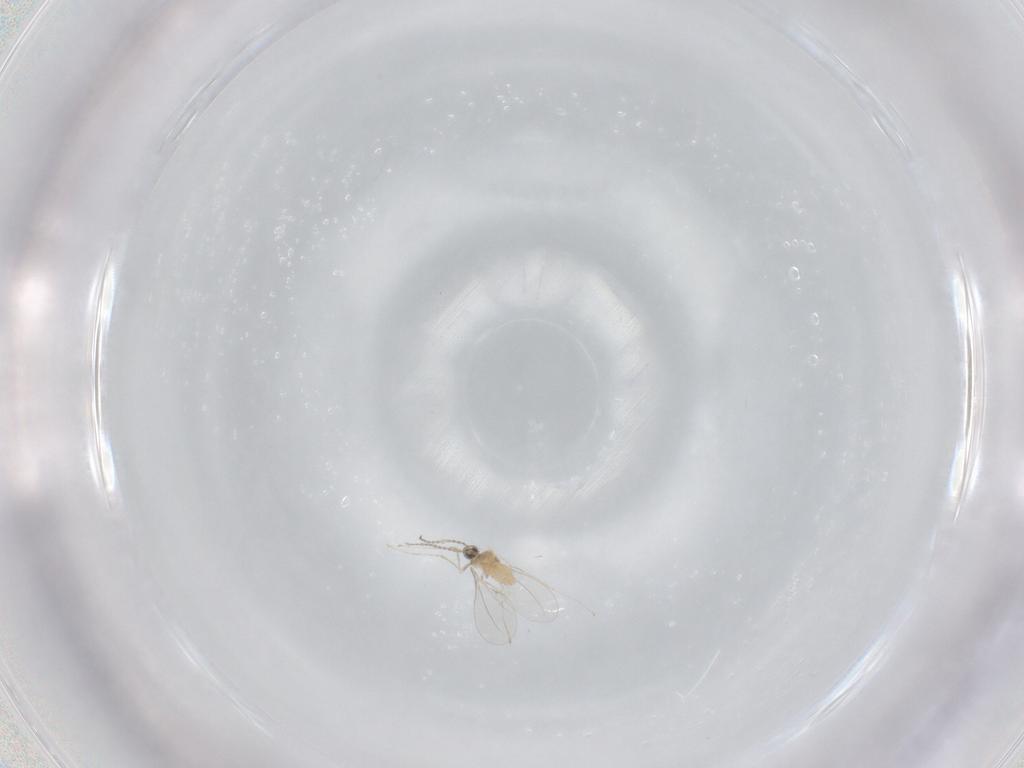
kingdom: Animalia
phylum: Arthropoda
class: Insecta
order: Diptera
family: Cecidomyiidae
